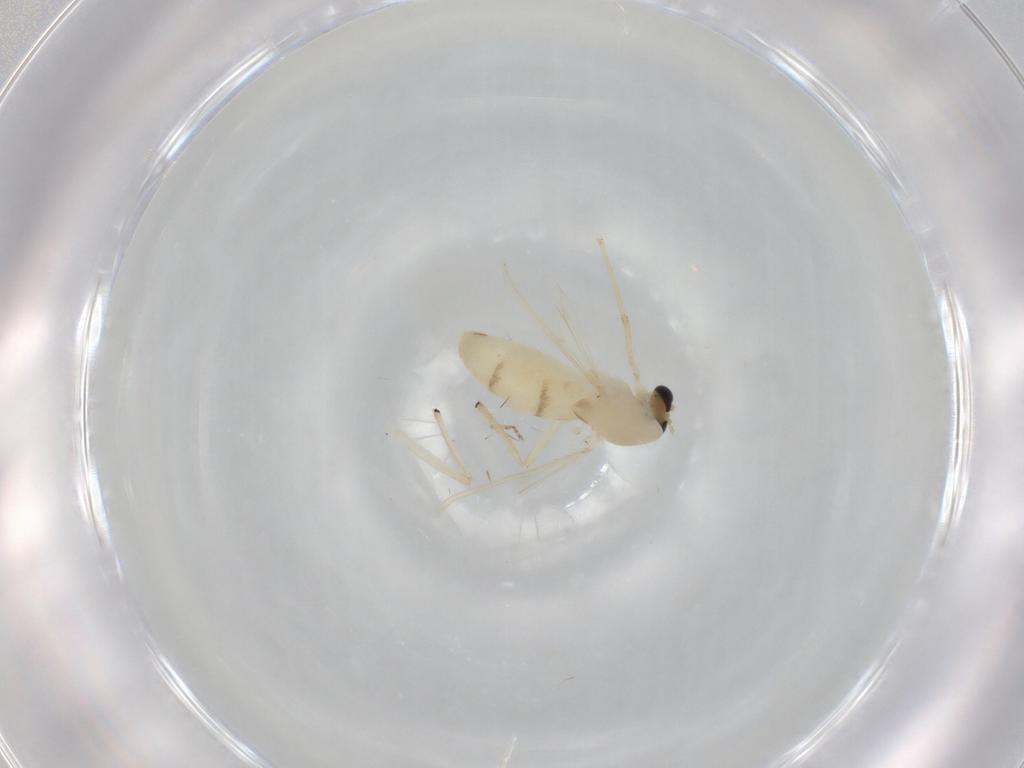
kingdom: Animalia
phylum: Arthropoda
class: Insecta
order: Diptera
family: Chironomidae
